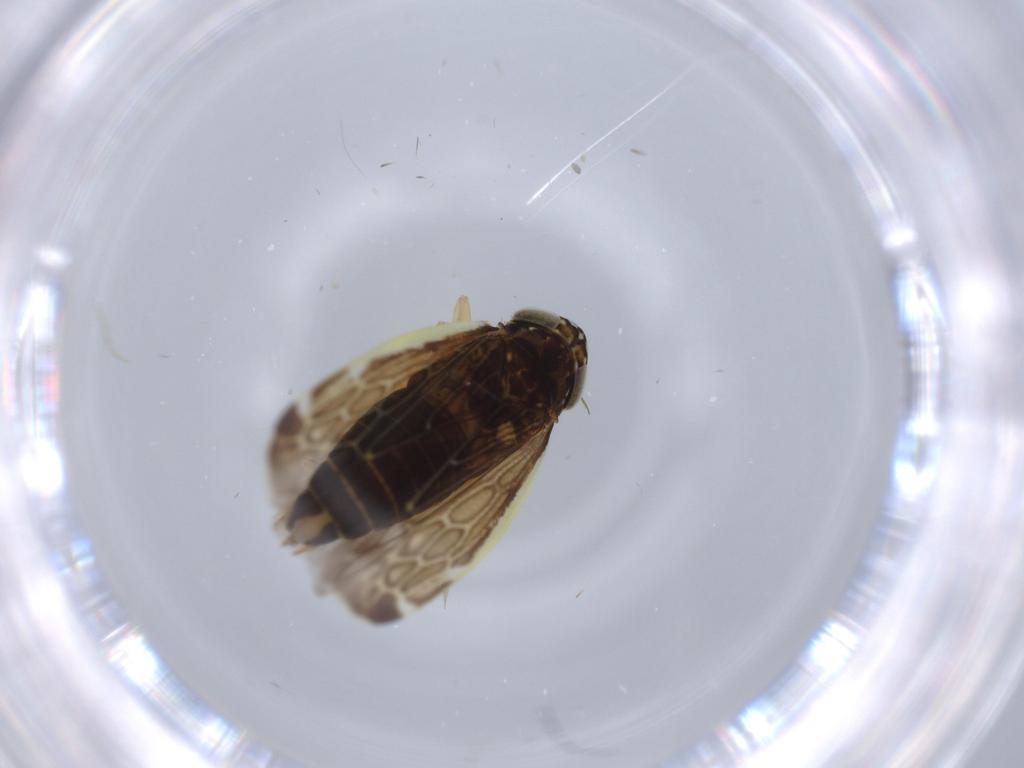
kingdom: Animalia
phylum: Arthropoda
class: Insecta
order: Hemiptera
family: Cicadellidae
